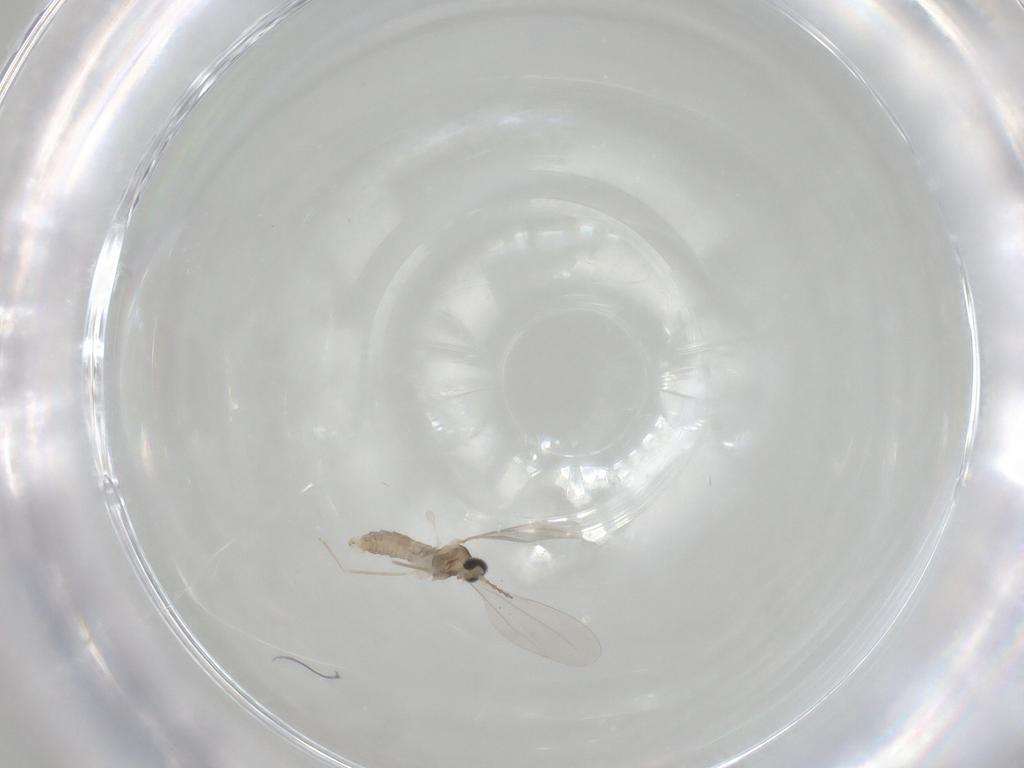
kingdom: Animalia
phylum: Arthropoda
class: Insecta
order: Diptera
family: Cecidomyiidae
